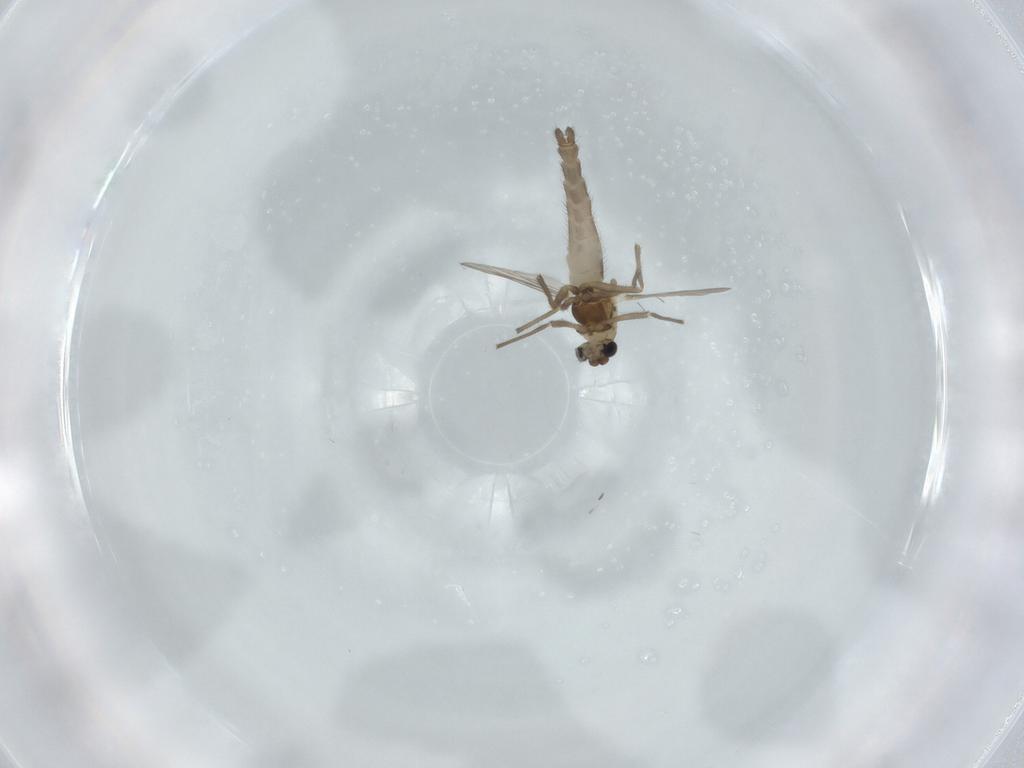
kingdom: Animalia
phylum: Arthropoda
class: Insecta
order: Diptera
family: Chironomidae
